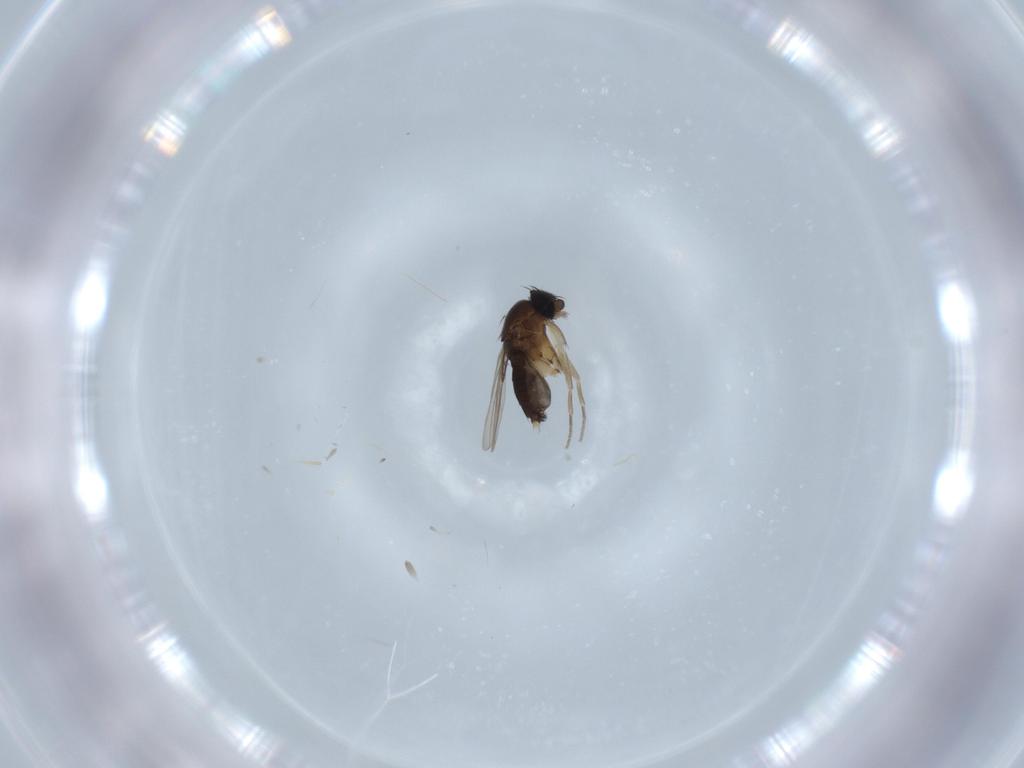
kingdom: Animalia
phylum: Arthropoda
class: Insecta
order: Diptera
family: Phoridae
